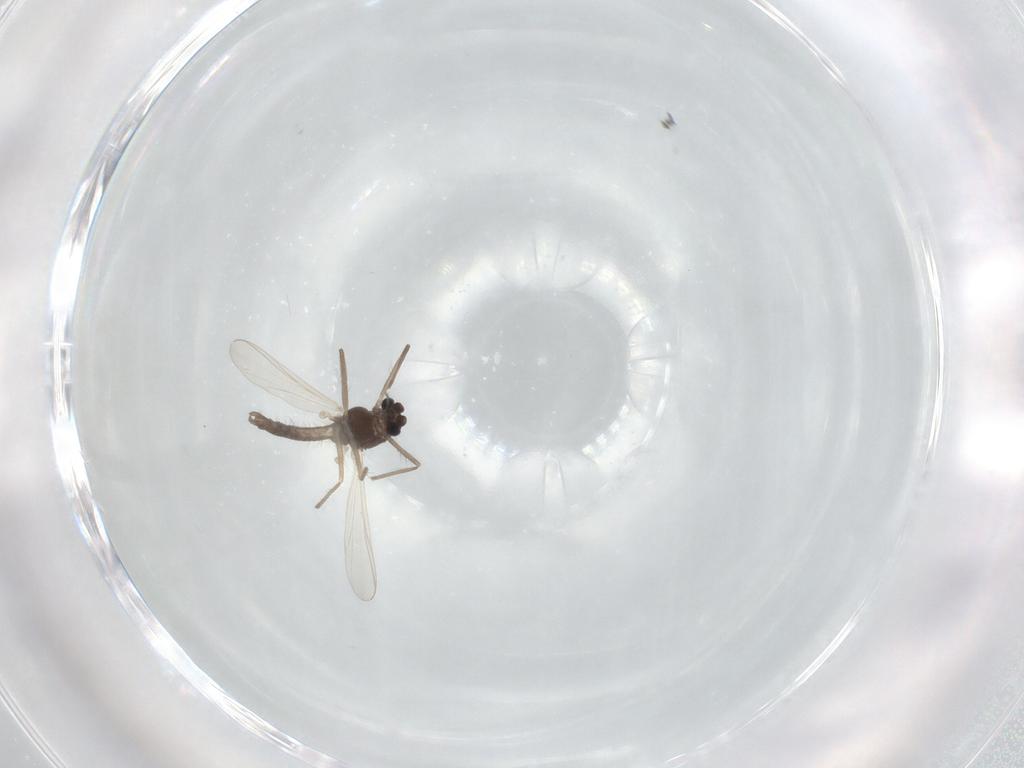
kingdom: Animalia
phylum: Arthropoda
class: Insecta
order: Diptera
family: Chironomidae
